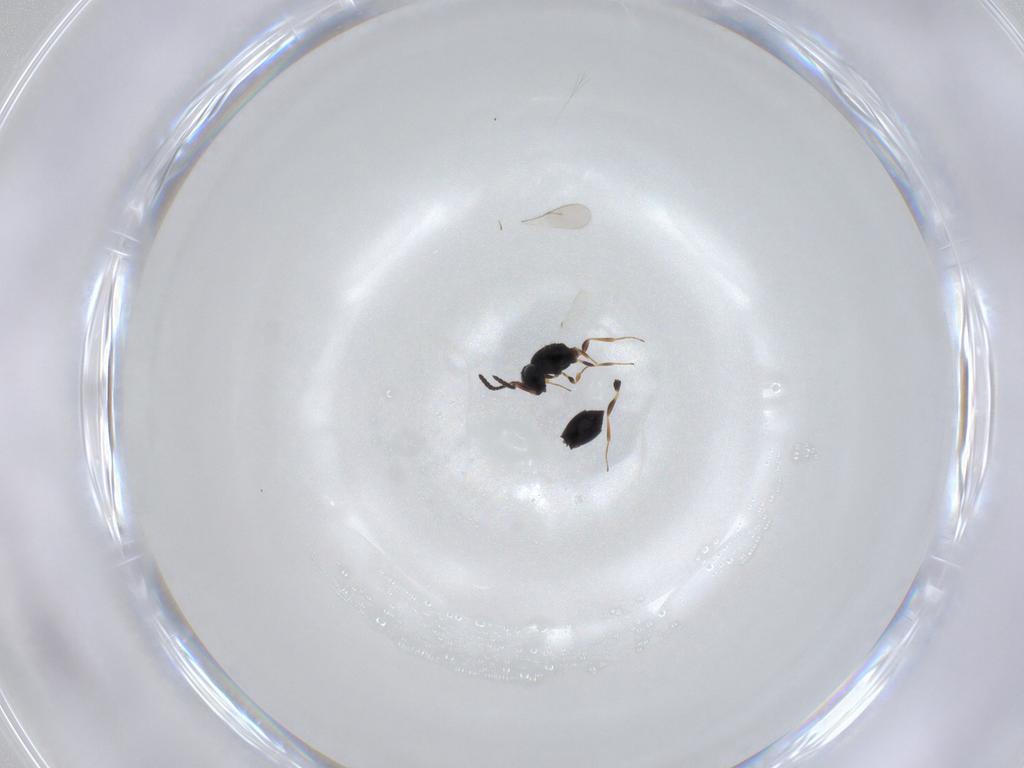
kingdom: Animalia
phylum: Arthropoda
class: Insecta
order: Hymenoptera
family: Scelionidae
